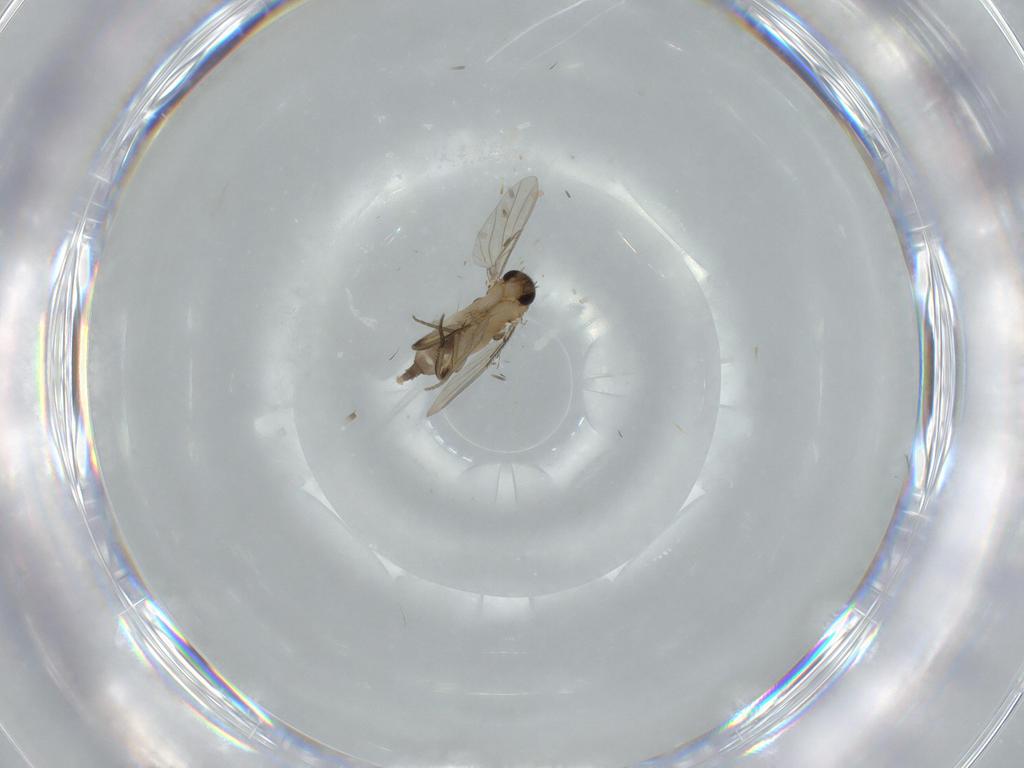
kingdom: Animalia
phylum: Arthropoda
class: Insecta
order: Diptera
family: Phoridae
